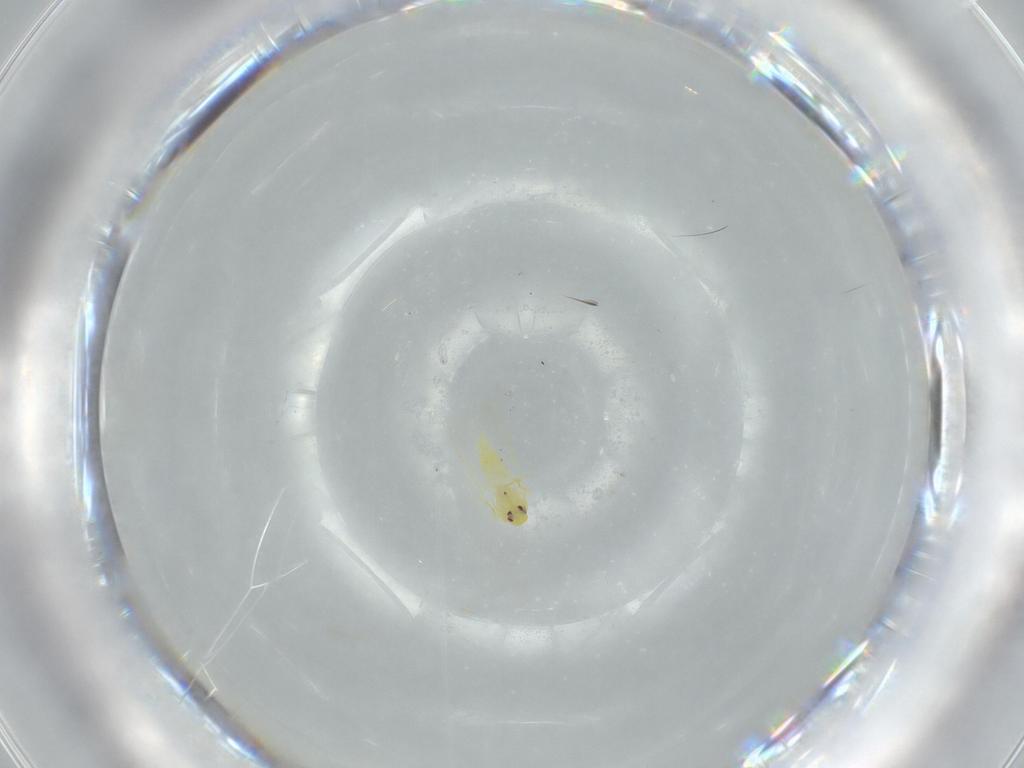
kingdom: Animalia
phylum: Arthropoda
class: Insecta
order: Hemiptera
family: Aleyrodidae
